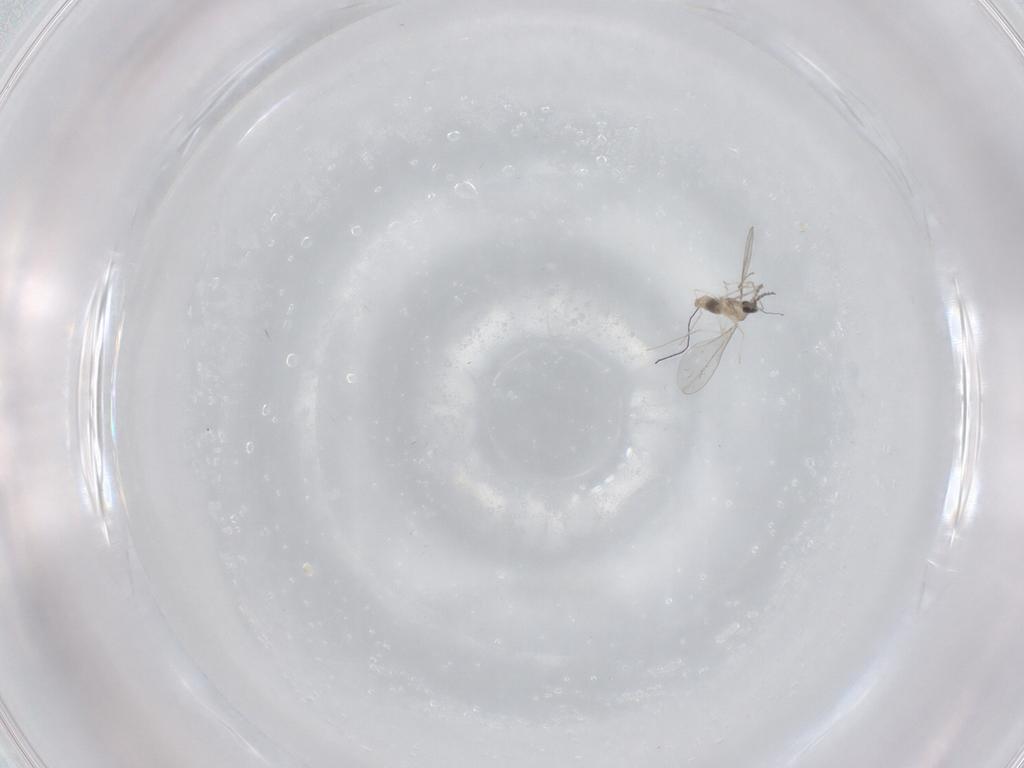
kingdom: Animalia
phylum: Arthropoda
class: Insecta
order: Diptera
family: Cecidomyiidae
